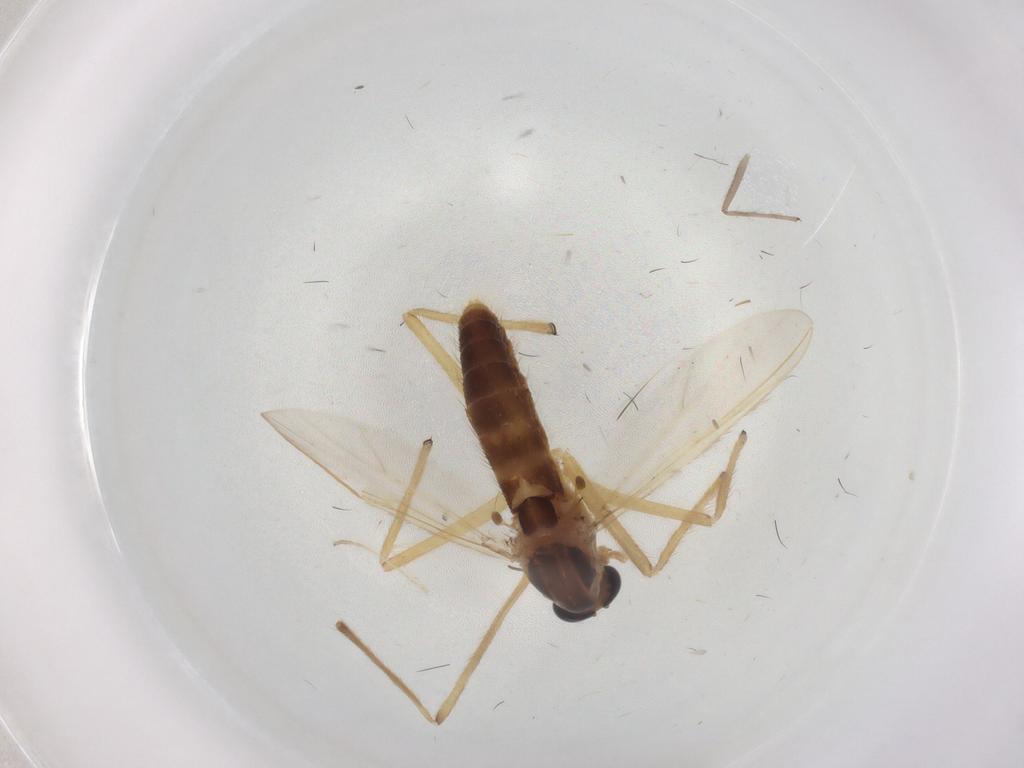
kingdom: Animalia
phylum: Arthropoda
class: Insecta
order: Diptera
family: Chironomidae
